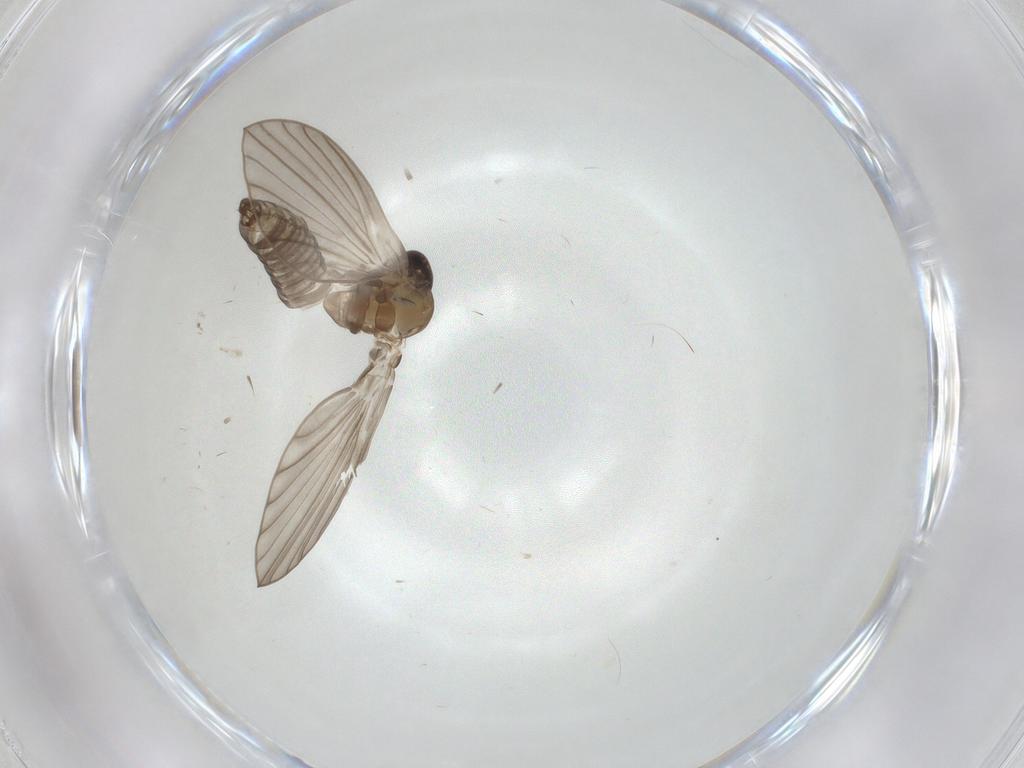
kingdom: Animalia
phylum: Arthropoda
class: Insecta
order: Diptera
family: Psychodidae
